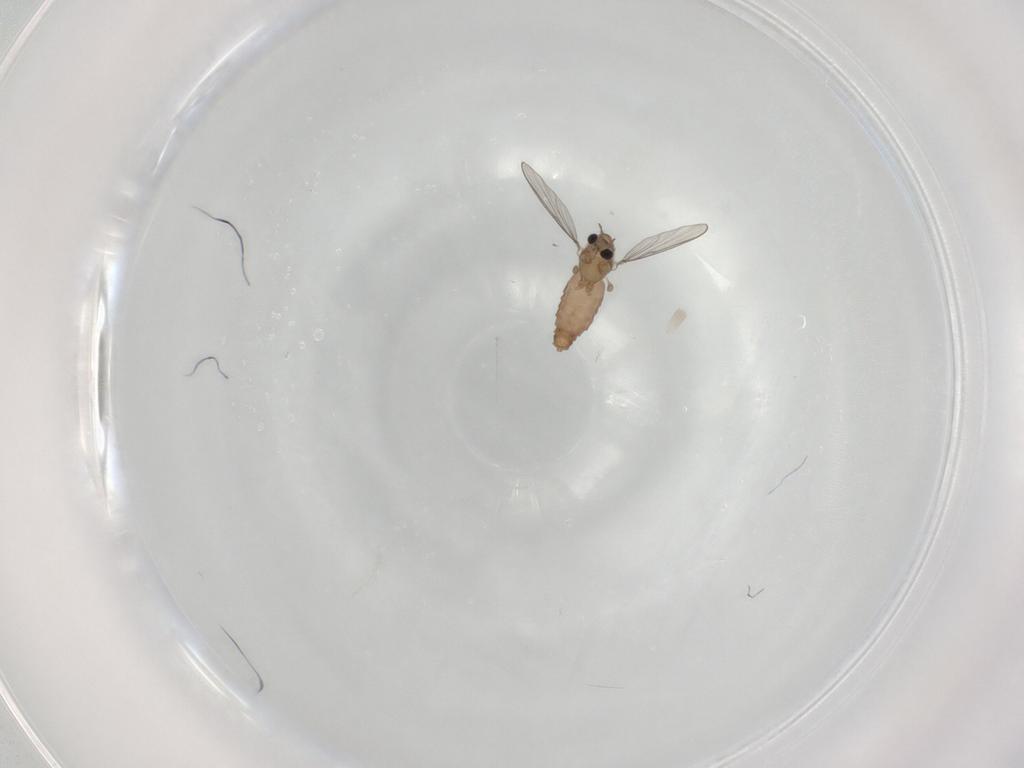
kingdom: Animalia
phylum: Arthropoda
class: Insecta
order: Diptera
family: Chironomidae
